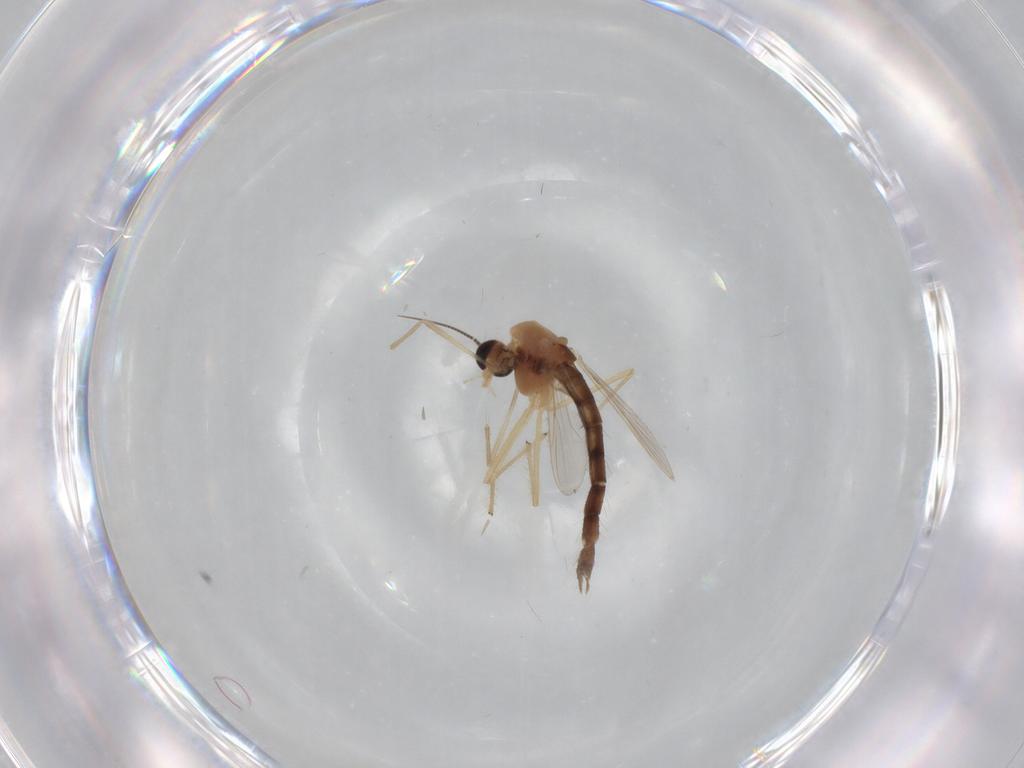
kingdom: Animalia
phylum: Arthropoda
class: Insecta
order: Diptera
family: Chironomidae
